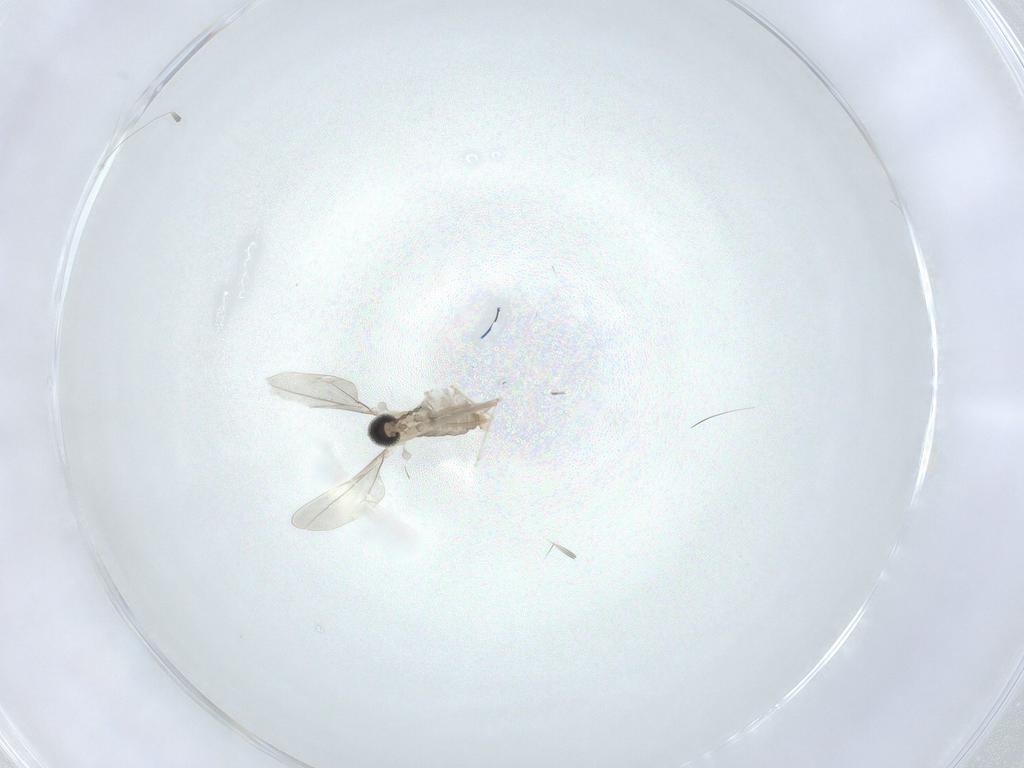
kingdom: Animalia
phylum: Arthropoda
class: Insecta
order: Diptera
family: Cecidomyiidae
